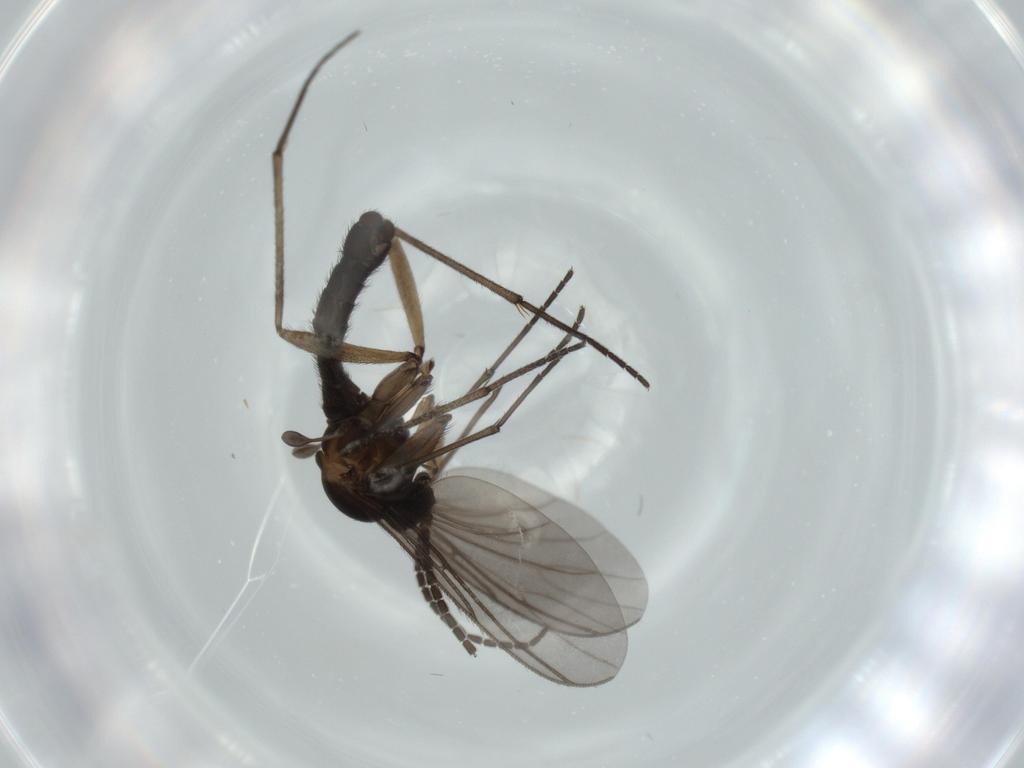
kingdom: Animalia
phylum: Arthropoda
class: Insecta
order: Diptera
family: Sciaridae
